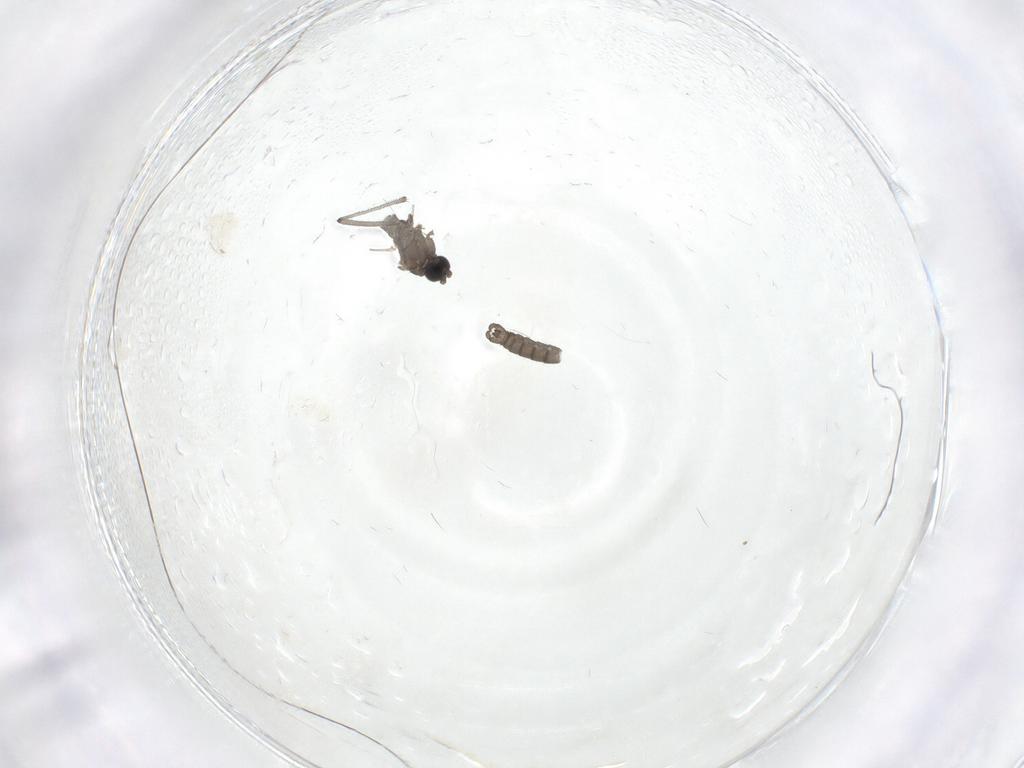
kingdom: Animalia
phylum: Arthropoda
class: Insecta
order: Diptera
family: Sciaridae
